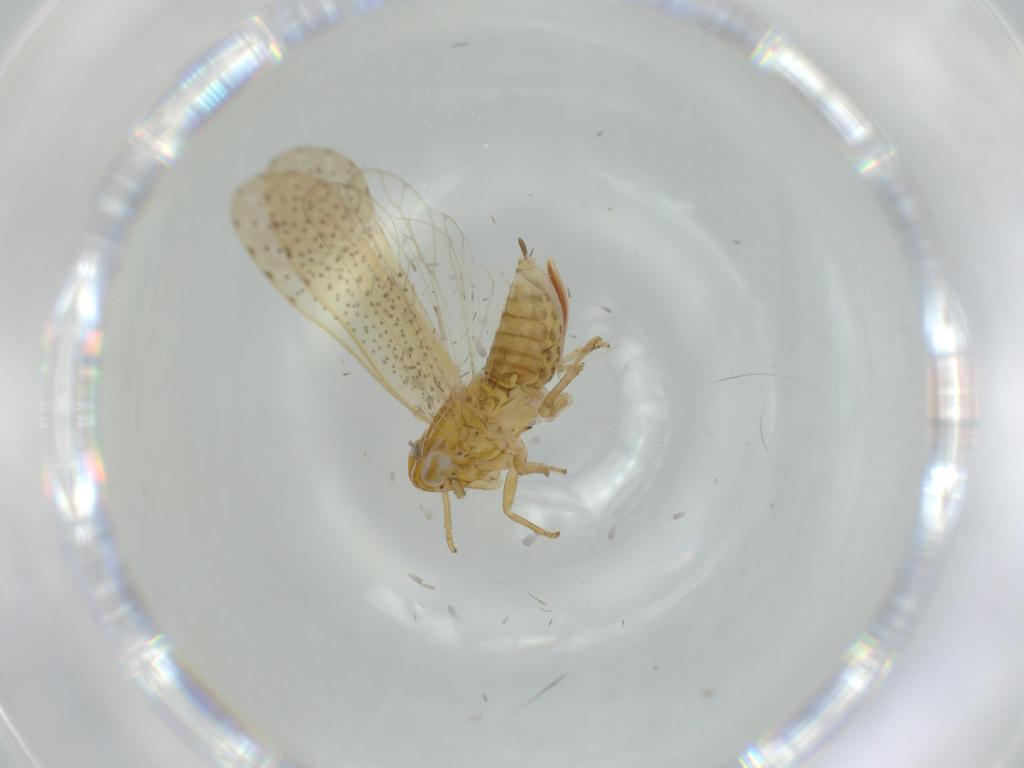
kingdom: Animalia
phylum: Arthropoda
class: Insecta
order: Hemiptera
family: Delphacidae
